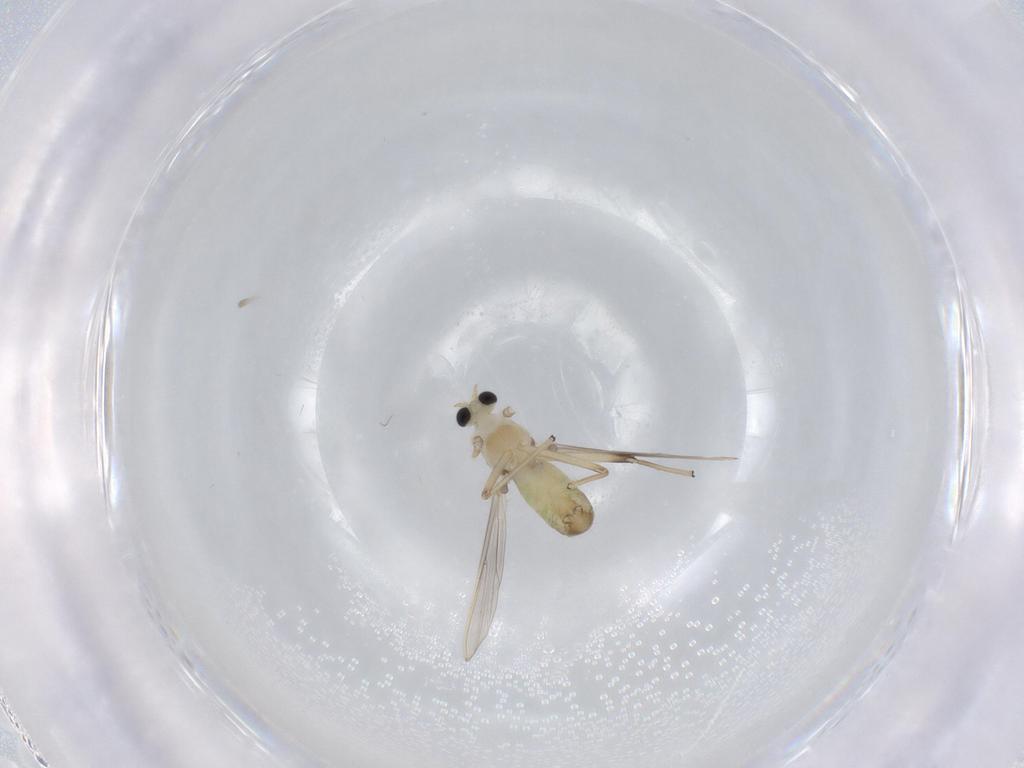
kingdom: Animalia
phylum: Arthropoda
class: Insecta
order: Diptera
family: Chironomidae
